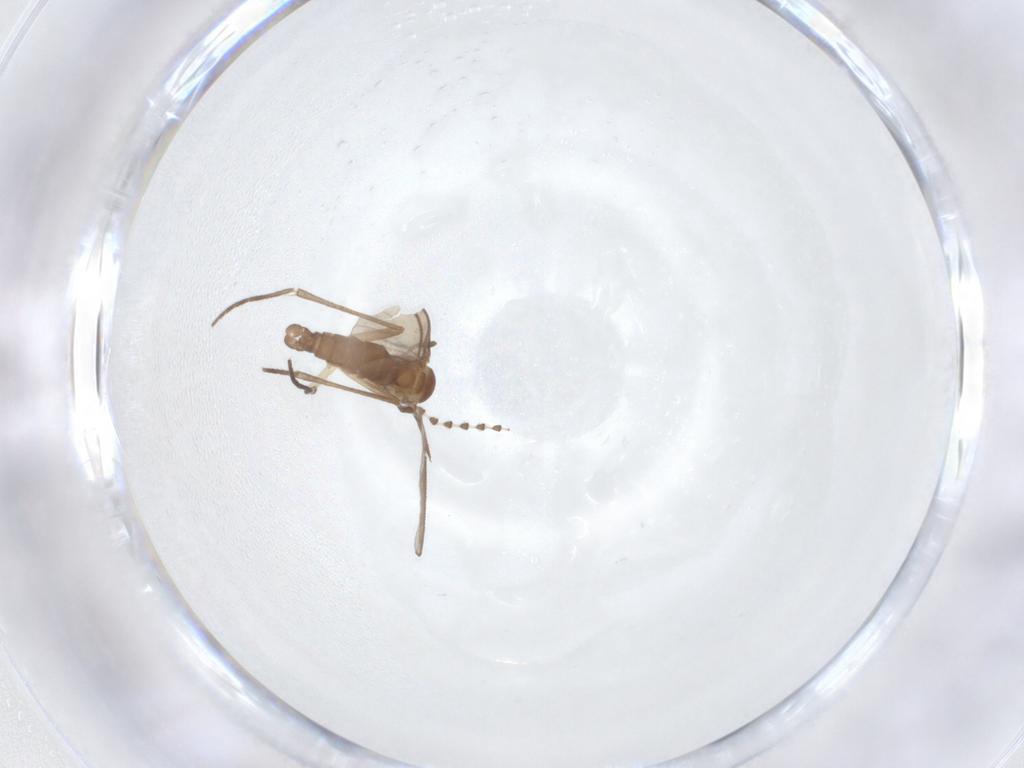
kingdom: Animalia
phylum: Arthropoda
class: Insecta
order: Diptera
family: Sciaridae
